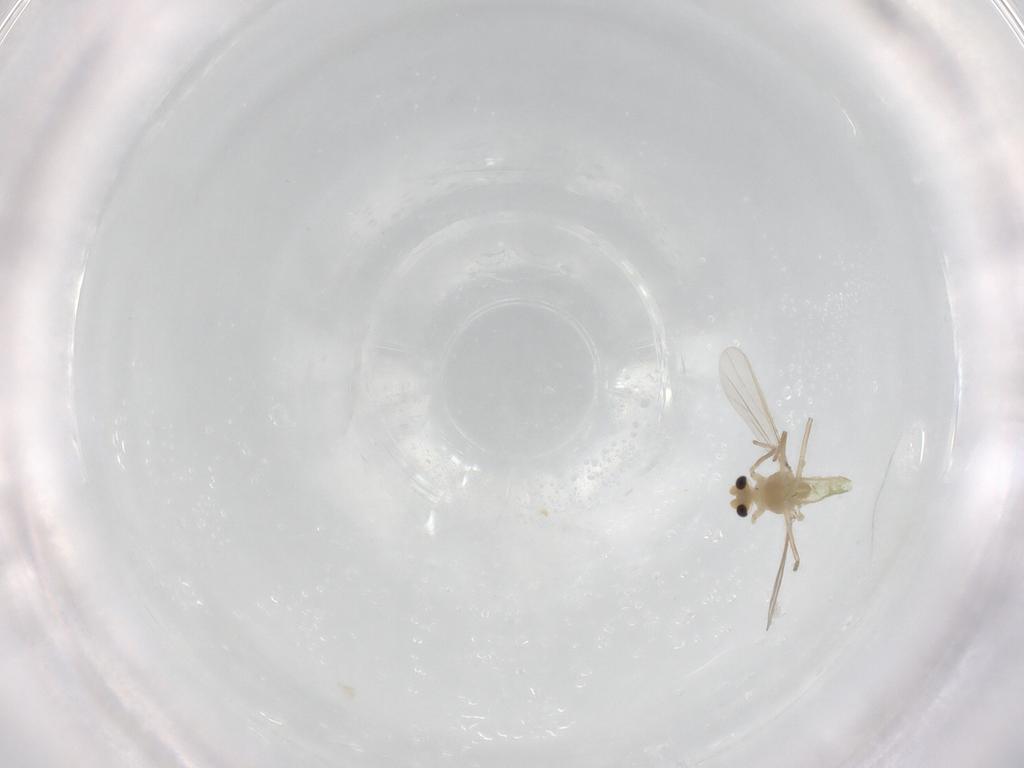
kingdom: Animalia
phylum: Arthropoda
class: Insecta
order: Diptera
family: Chironomidae
